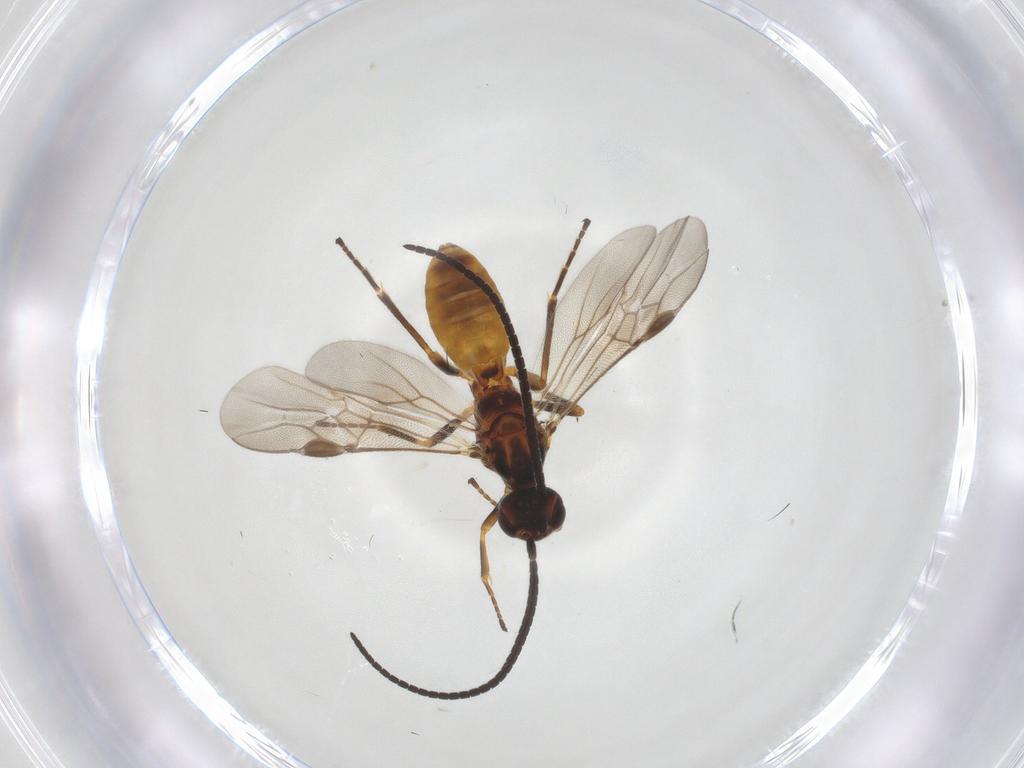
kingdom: Animalia
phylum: Arthropoda
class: Insecta
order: Hymenoptera
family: Braconidae
